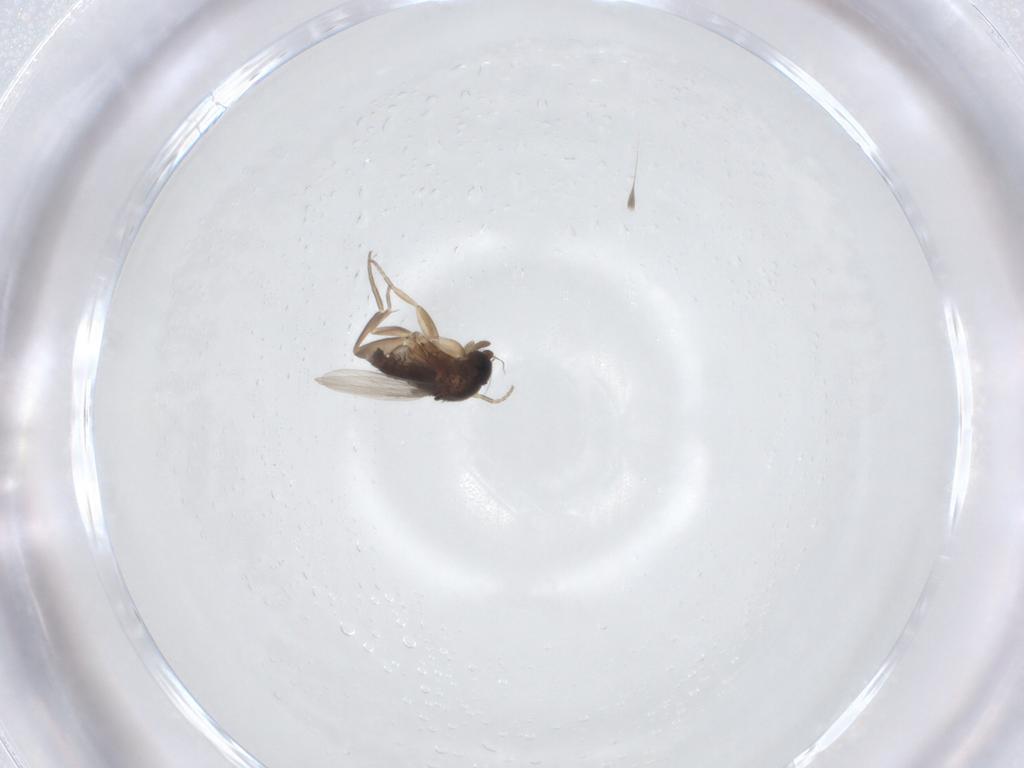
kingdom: Animalia
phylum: Arthropoda
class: Insecta
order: Diptera
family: Phoridae
